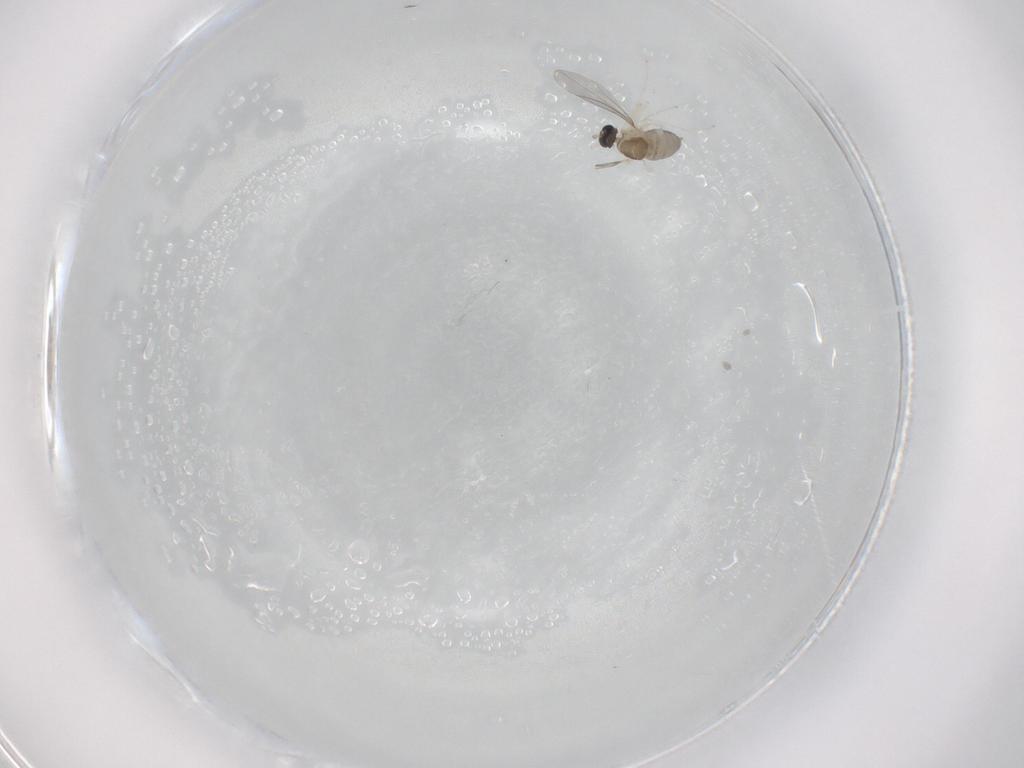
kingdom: Animalia
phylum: Arthropoda
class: Insecta
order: Diptera
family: Cecidomyiidae
